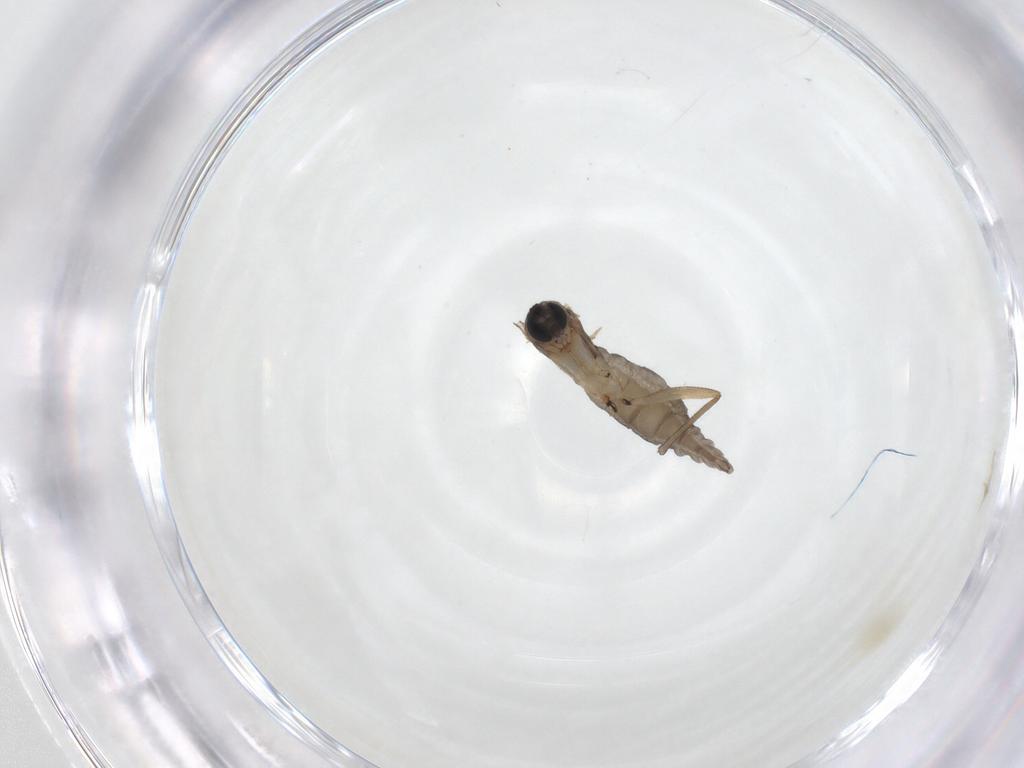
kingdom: Animalia
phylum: Arthropoda
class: Insecta
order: Diptera
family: Sciaridae
